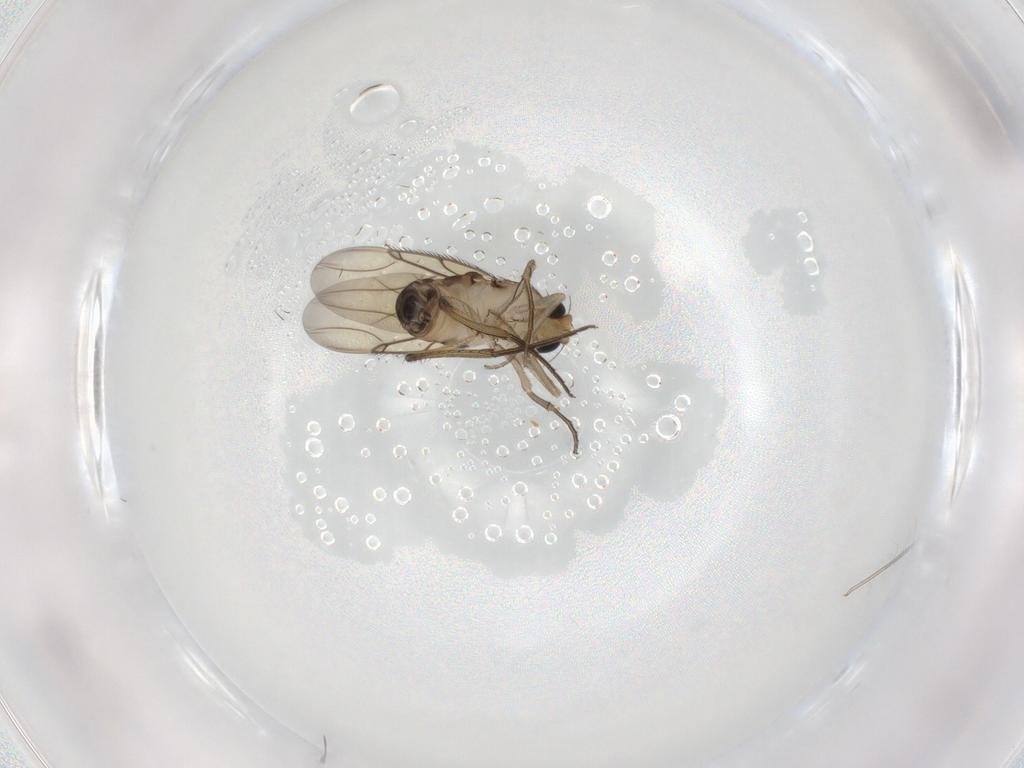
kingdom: Animalia
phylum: Arthropoda
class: Insecta
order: Diptera
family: Phoridae
